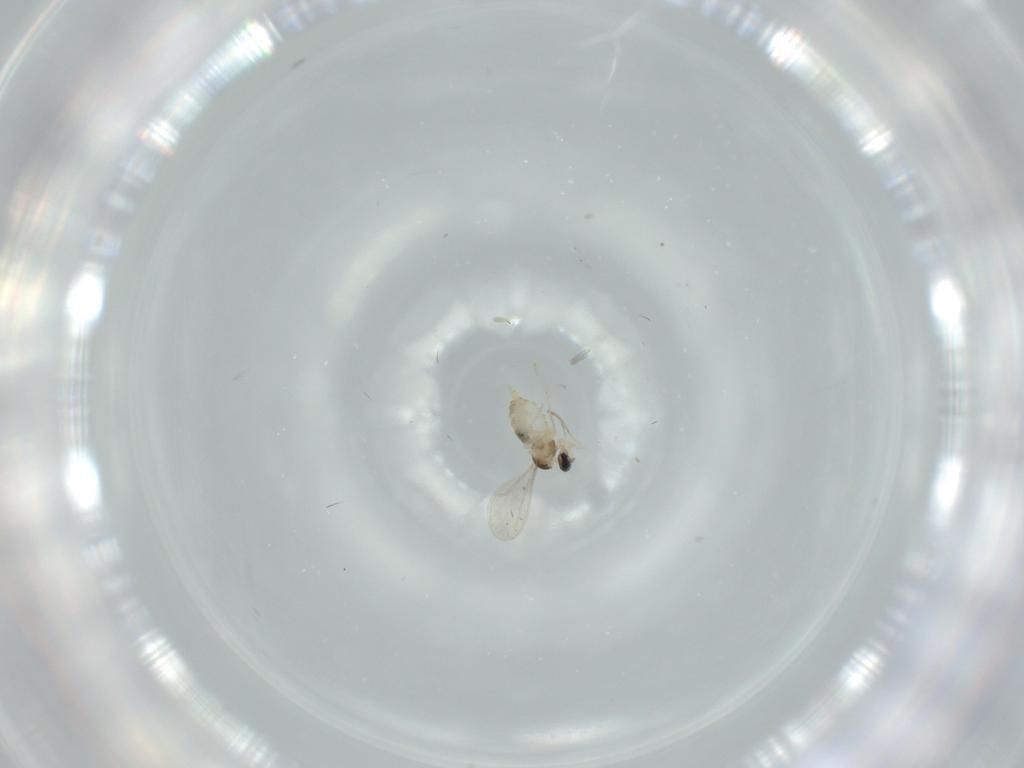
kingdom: Animalia
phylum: Arthropoda
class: Insecta
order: Diptera
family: Cecidomyiidae
